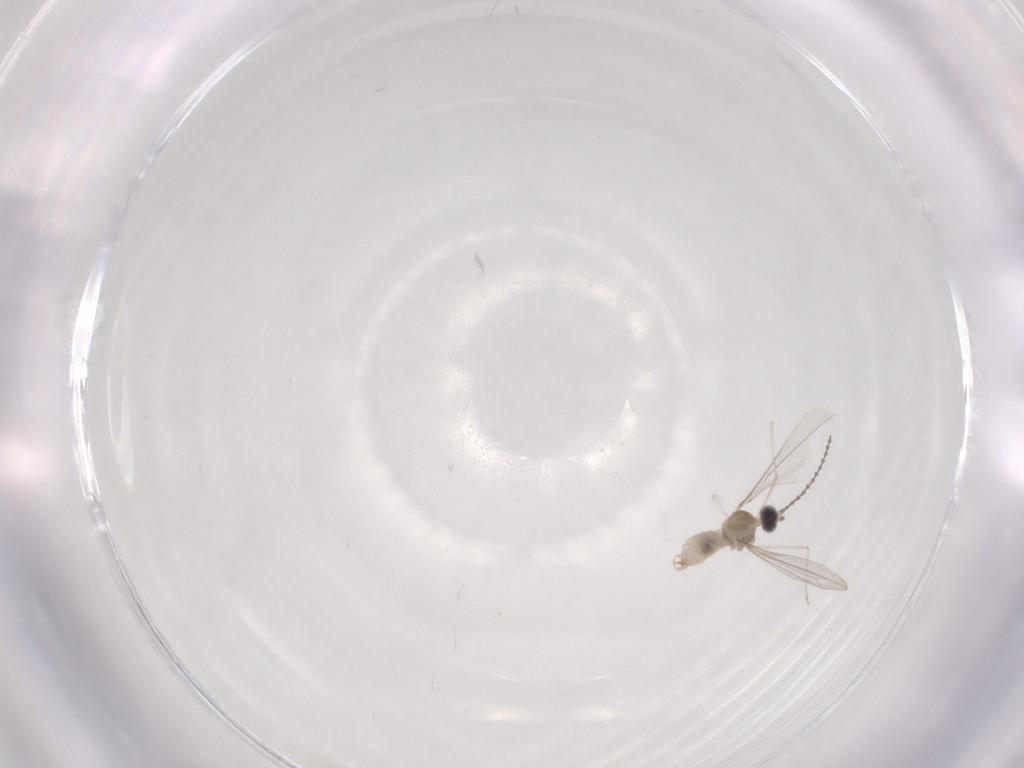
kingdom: Animalia
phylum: Arthropoda
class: Insecta
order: Diptera
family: Cecidomyiidae
